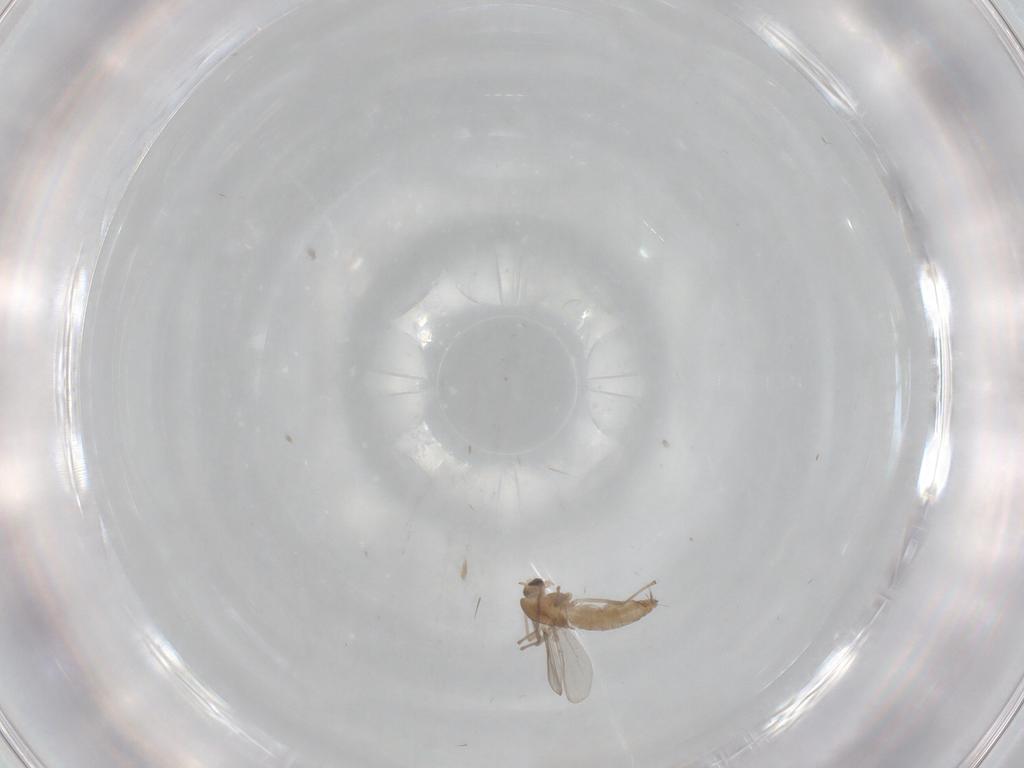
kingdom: Animalia
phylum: Arthropoda
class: Insecta
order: Diptera
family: Chironomidae
